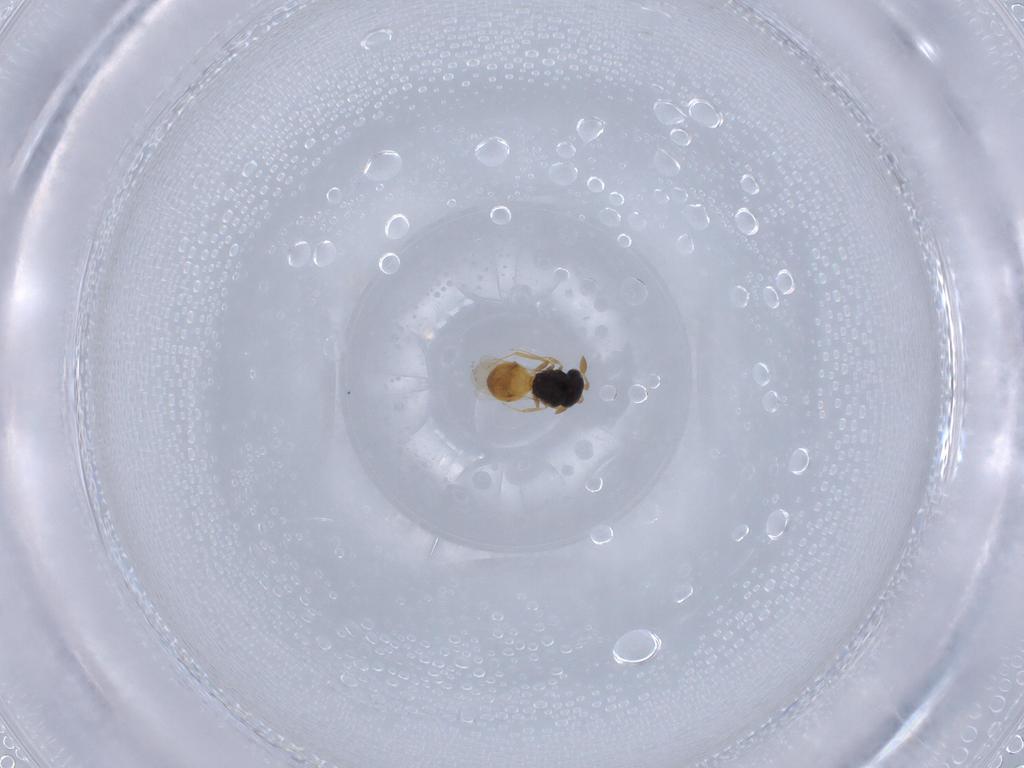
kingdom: Animalia
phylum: Arthropoda
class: Insecta
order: Hymenoptera
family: Scelionidae
